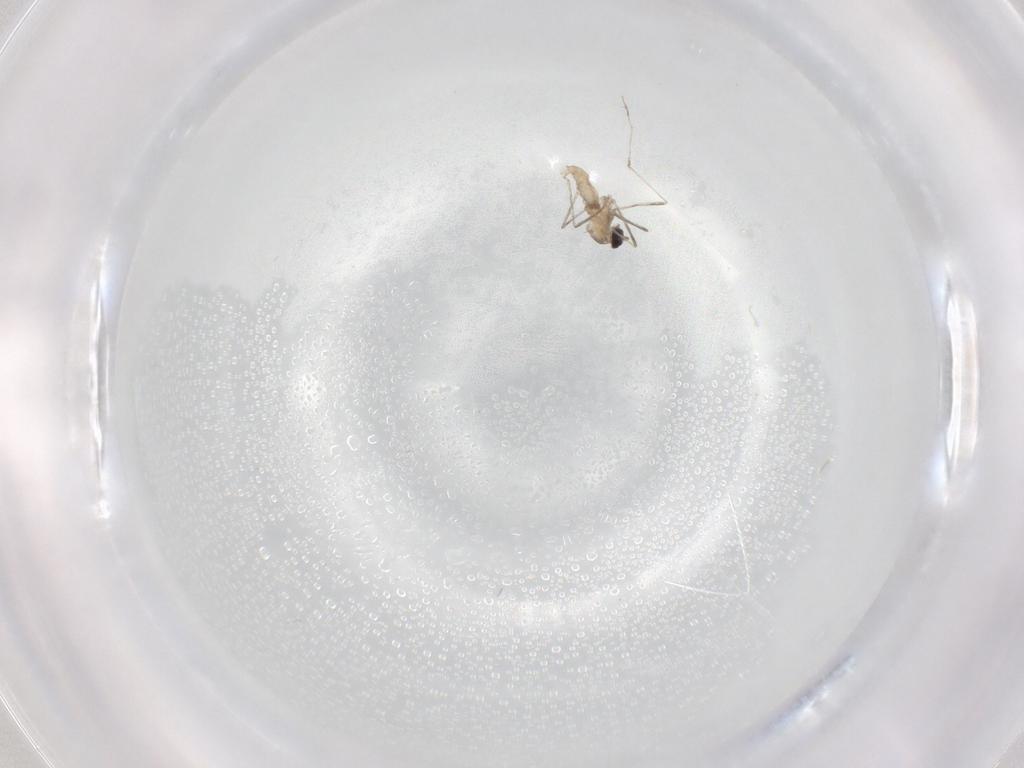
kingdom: Animalia
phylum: Arthropoda
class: Insecta
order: Diptera
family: Cecidomyiidae
